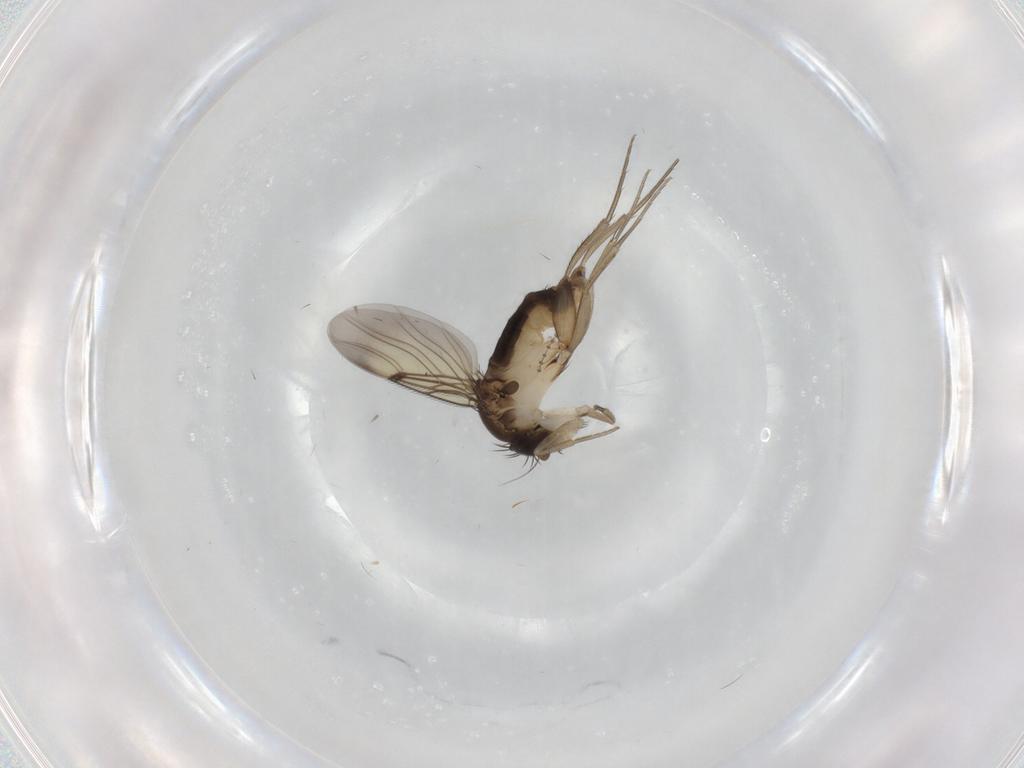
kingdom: Animalia
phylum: Arthropoda
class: Insecta
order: Diptera
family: Phoridae
